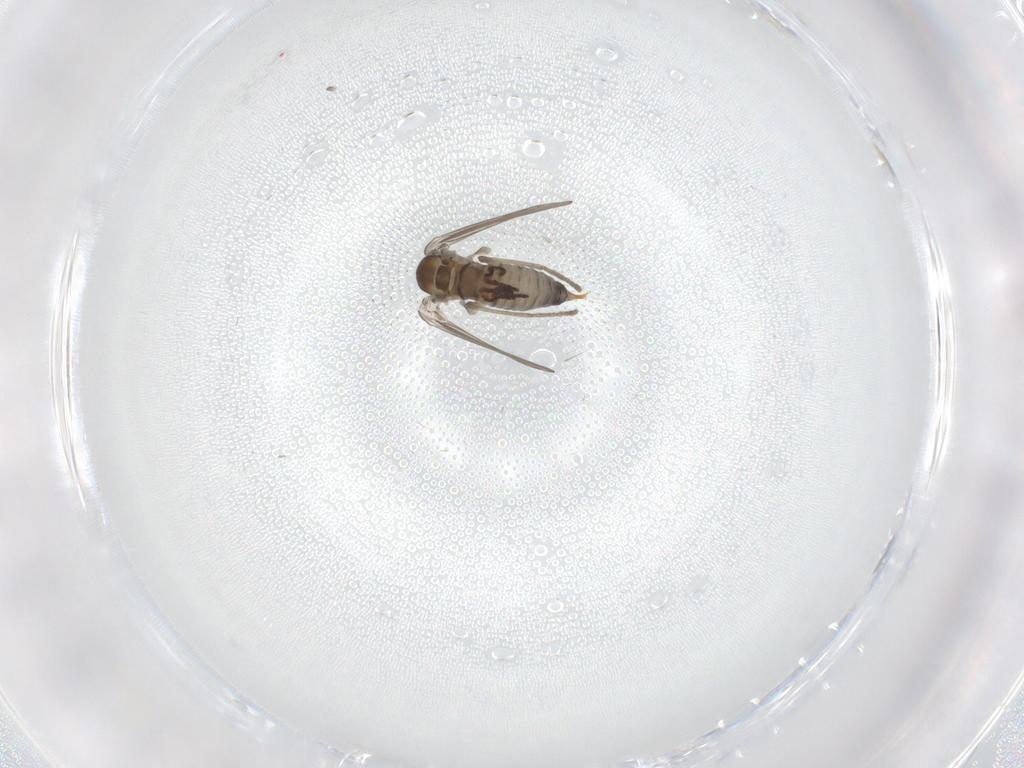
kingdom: Animalia
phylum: Arthropoda
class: Insecta
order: Diptera
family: Psychodidae
